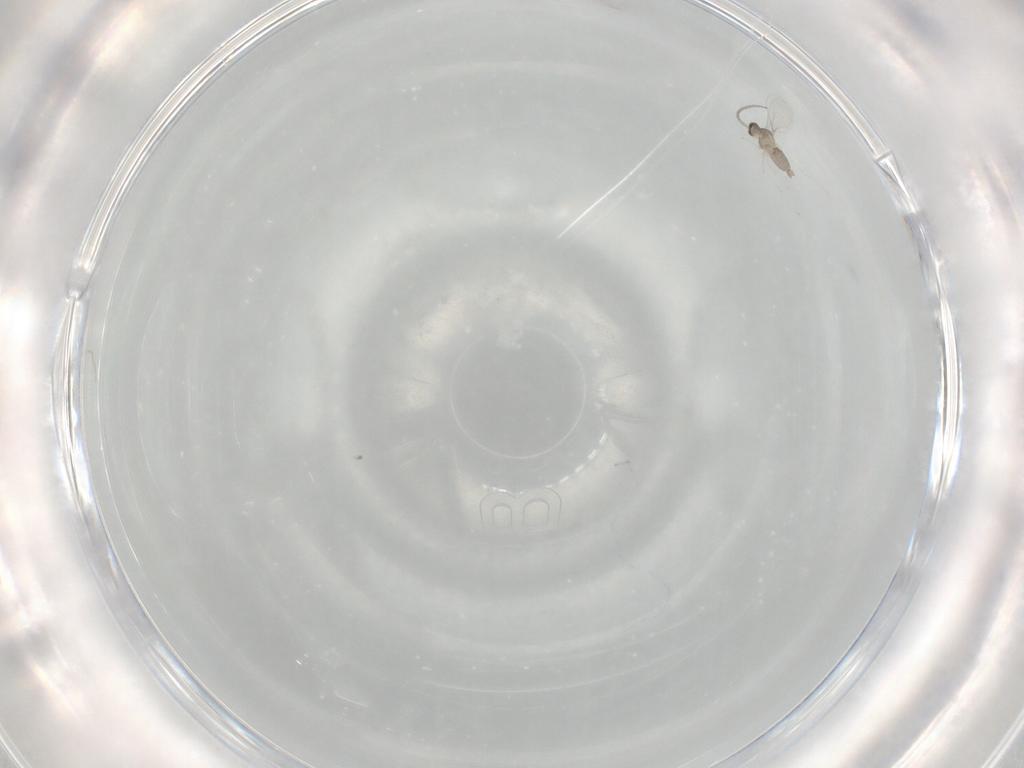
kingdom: Animalia
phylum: Arthropoda
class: Insecta
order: Diptera
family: Cecidomyiidae
